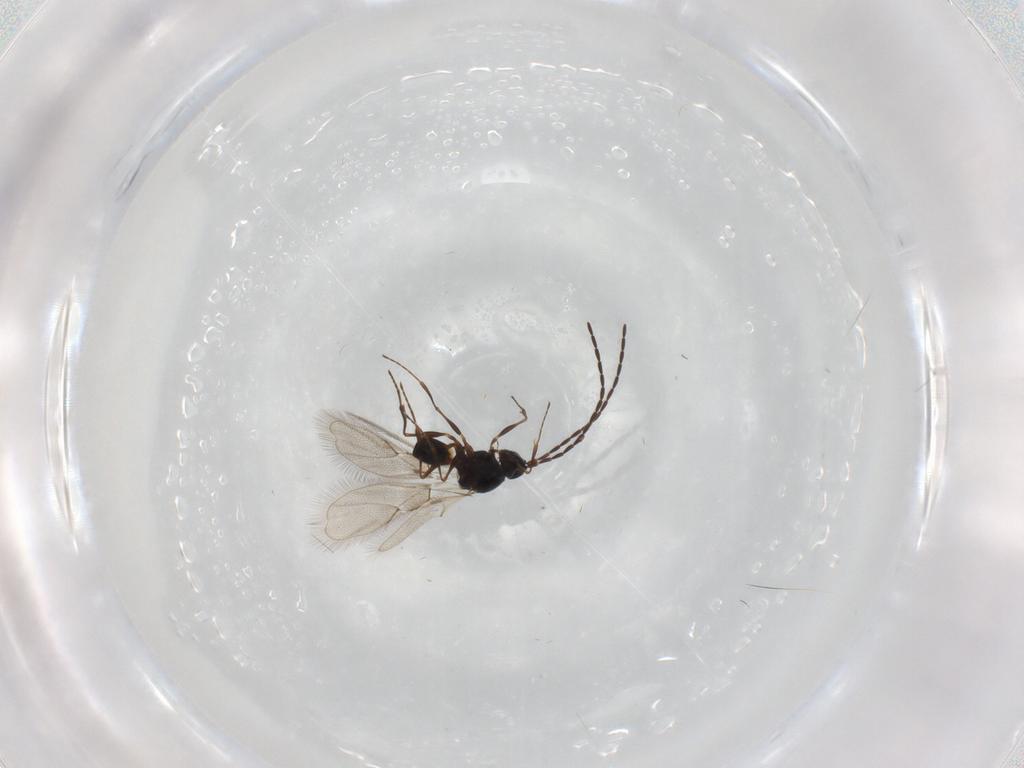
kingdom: Animalia
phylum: Arthropoda
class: Insecta
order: Hymenoptera
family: Figitidae
